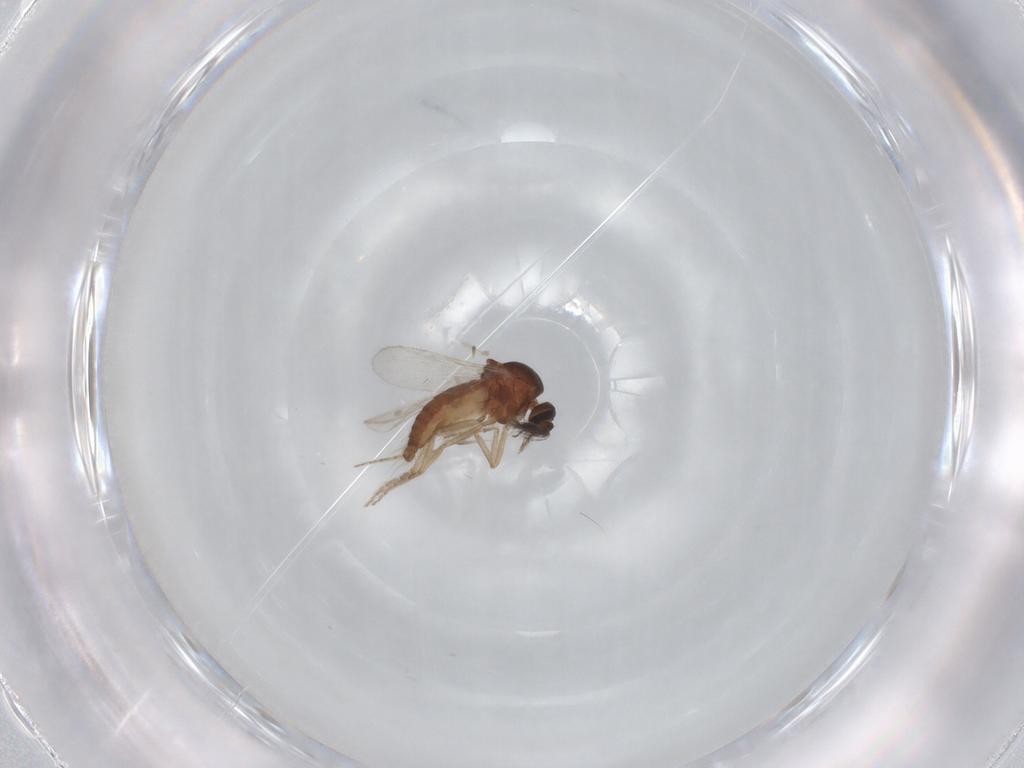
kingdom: Animalia
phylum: Arthropoda
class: Insecta
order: Diptera
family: Ceratopogonidae
